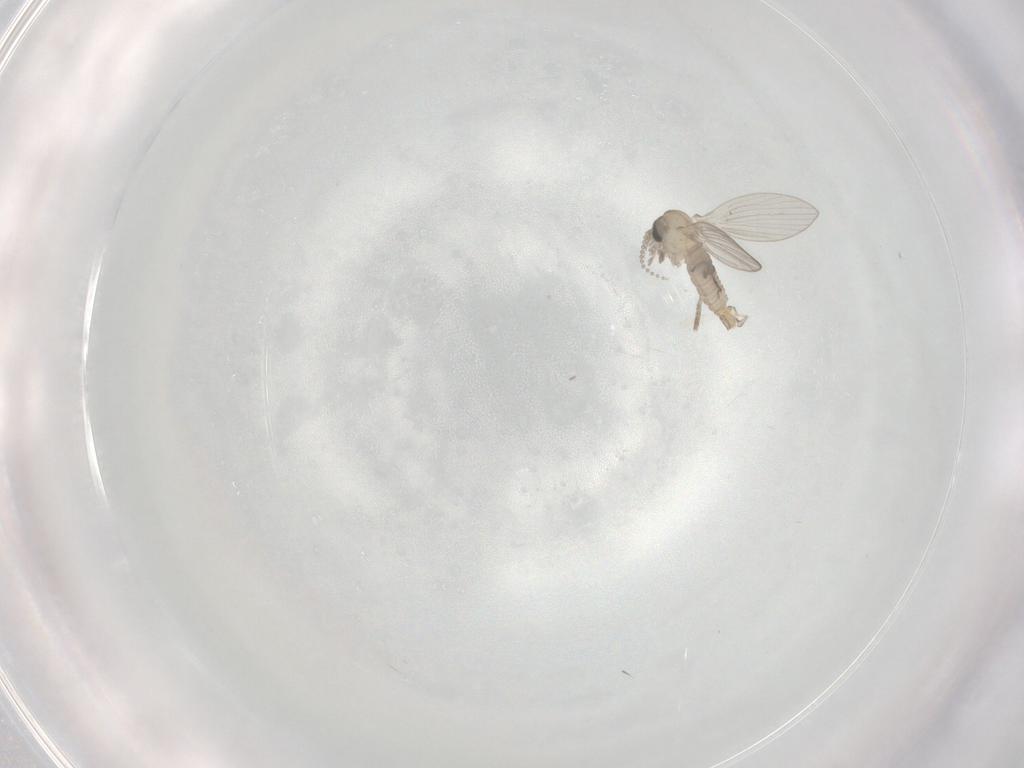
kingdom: Animalia
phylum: Arthropoda
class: Insecta
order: Diptera
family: Psychodidae
